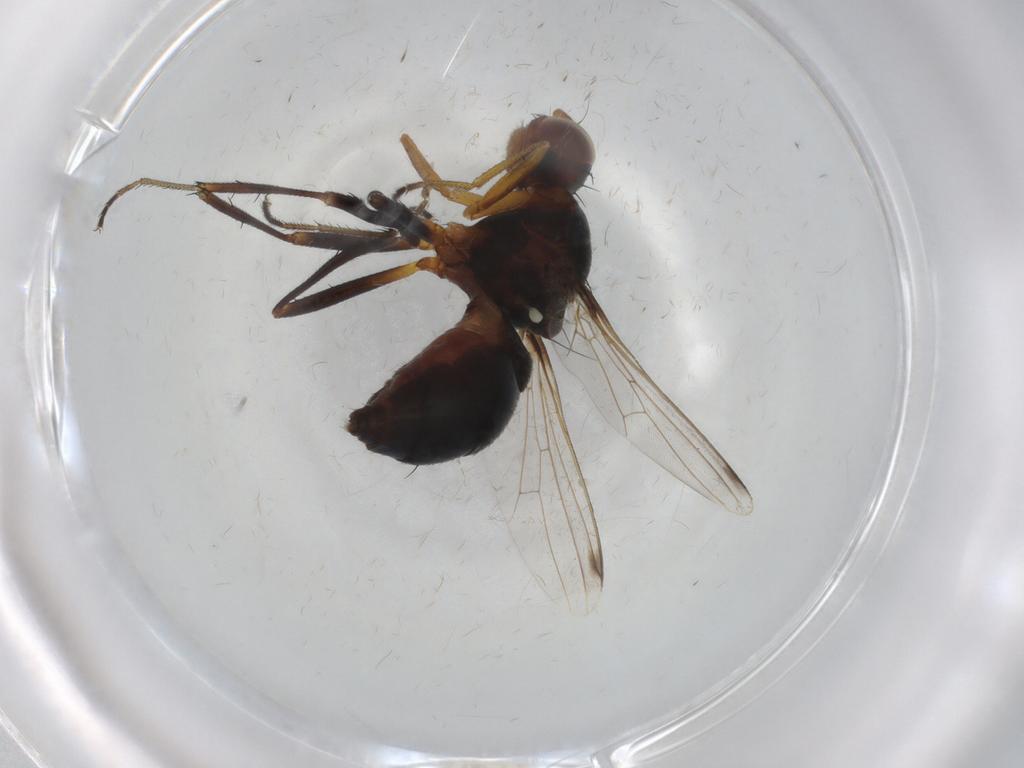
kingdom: Animalia
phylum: Arthropoda
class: Insecta
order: Diptera
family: Sepsidae
